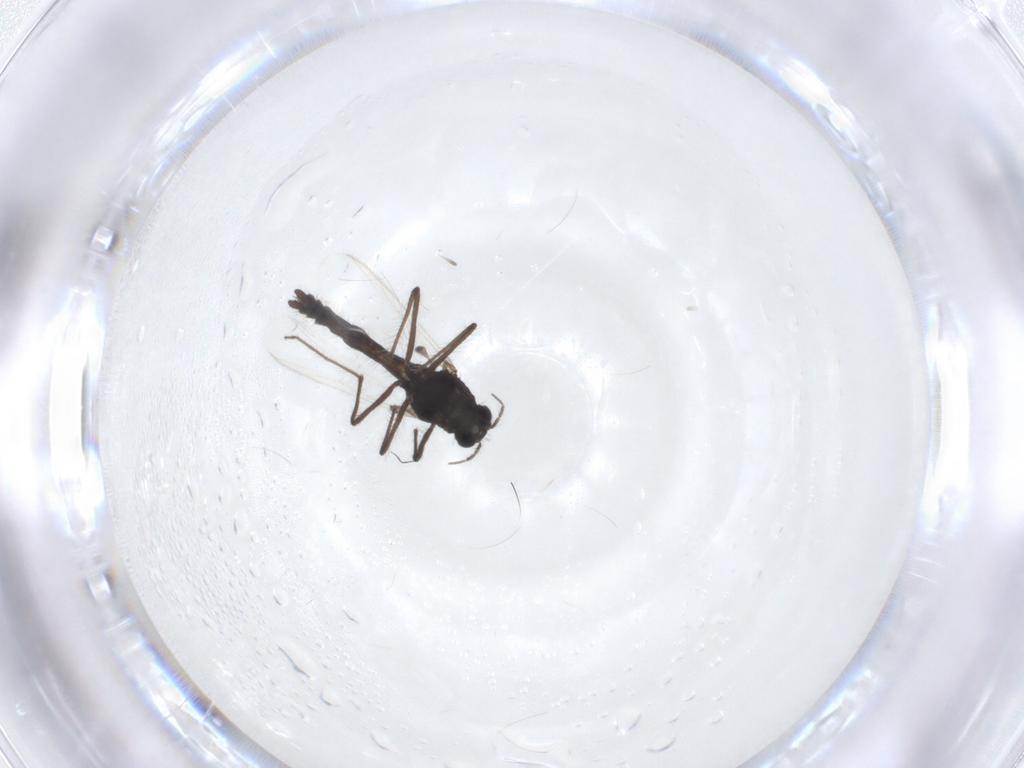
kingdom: Animalia
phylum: Arthropoda
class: Insecta
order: Diptera
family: Chironomidae
